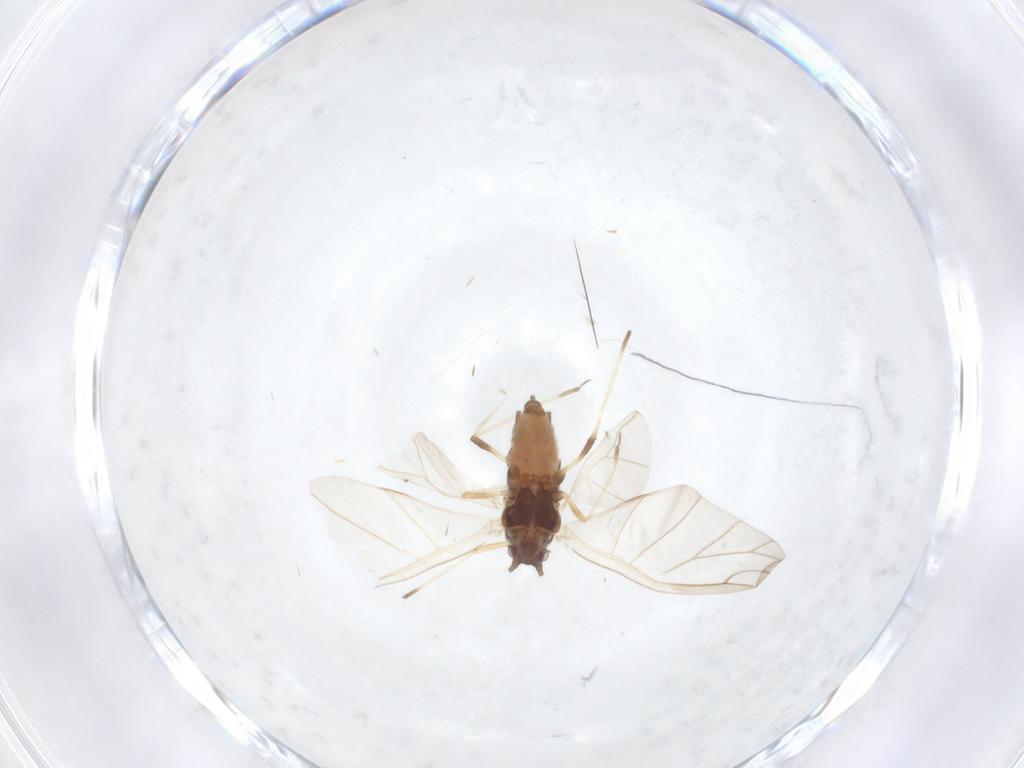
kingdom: Animalia
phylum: Arthropoda
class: Insecta
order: Hemiptera
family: Aphididae
